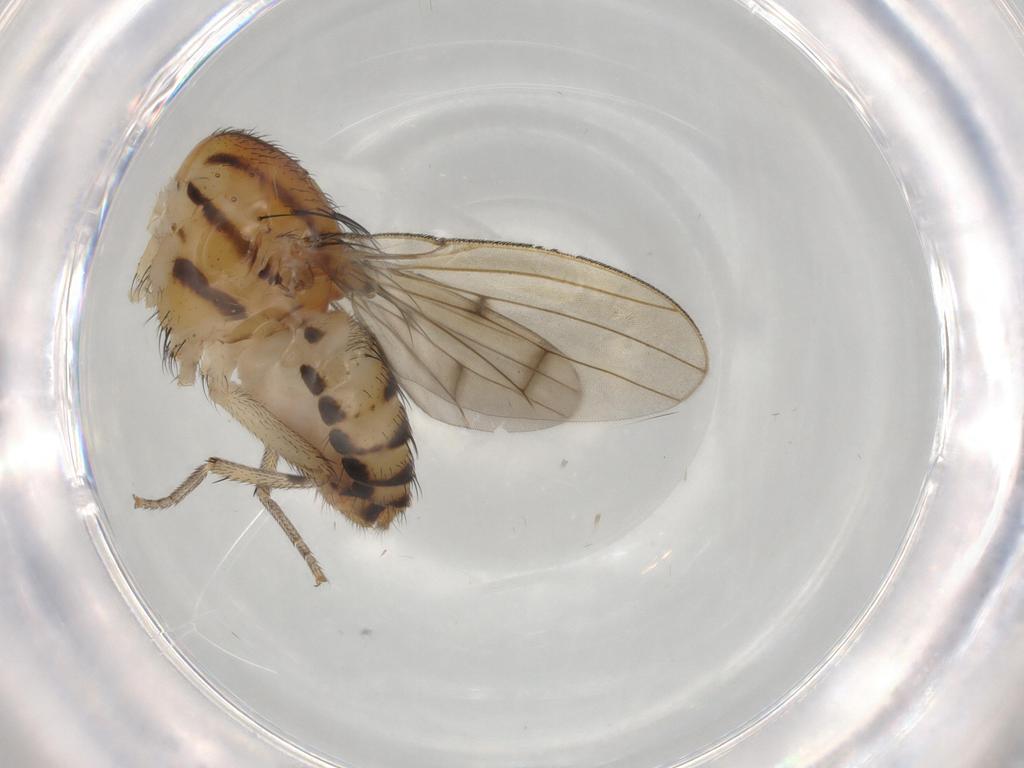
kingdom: Animalia
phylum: Arthropoda
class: Insecta
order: Diptera
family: Lauxaniidae
